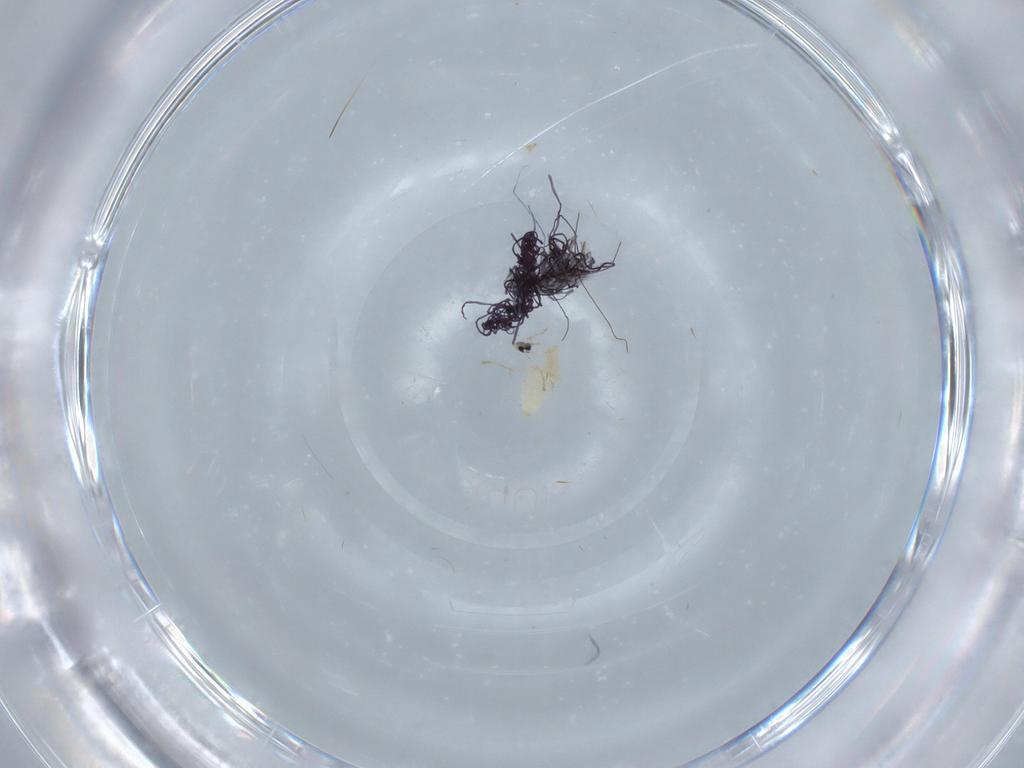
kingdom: Animalia
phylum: Arthropoda
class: Insecta
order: Diptera
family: Cecidomyiidae
